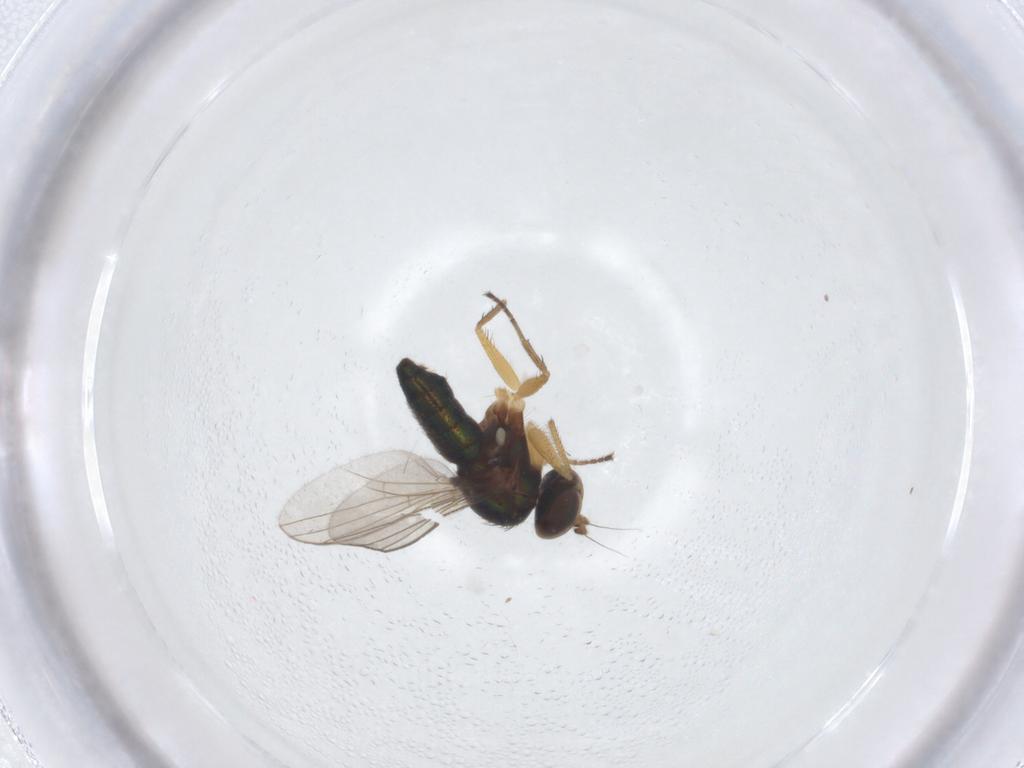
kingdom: Animalia
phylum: Arthropoda
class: Insecta
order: Diptera
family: Dolichopodidae
